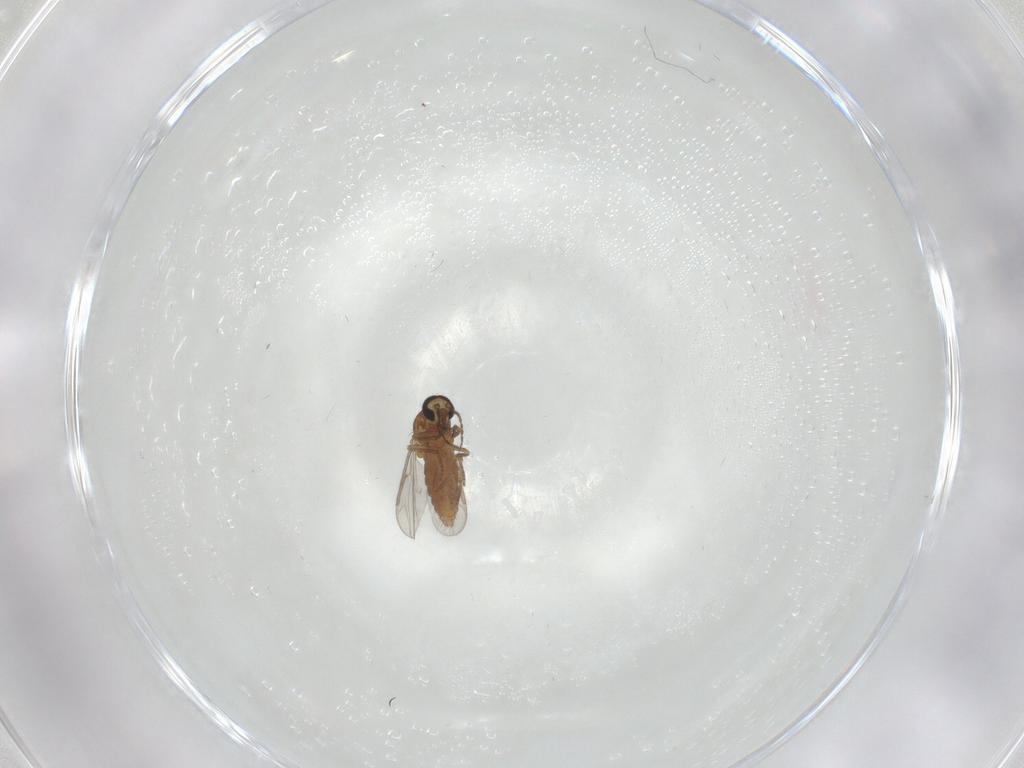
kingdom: Animalia
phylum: Arthropoda
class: Insecta
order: Diptera
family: Ceratopogonidae
